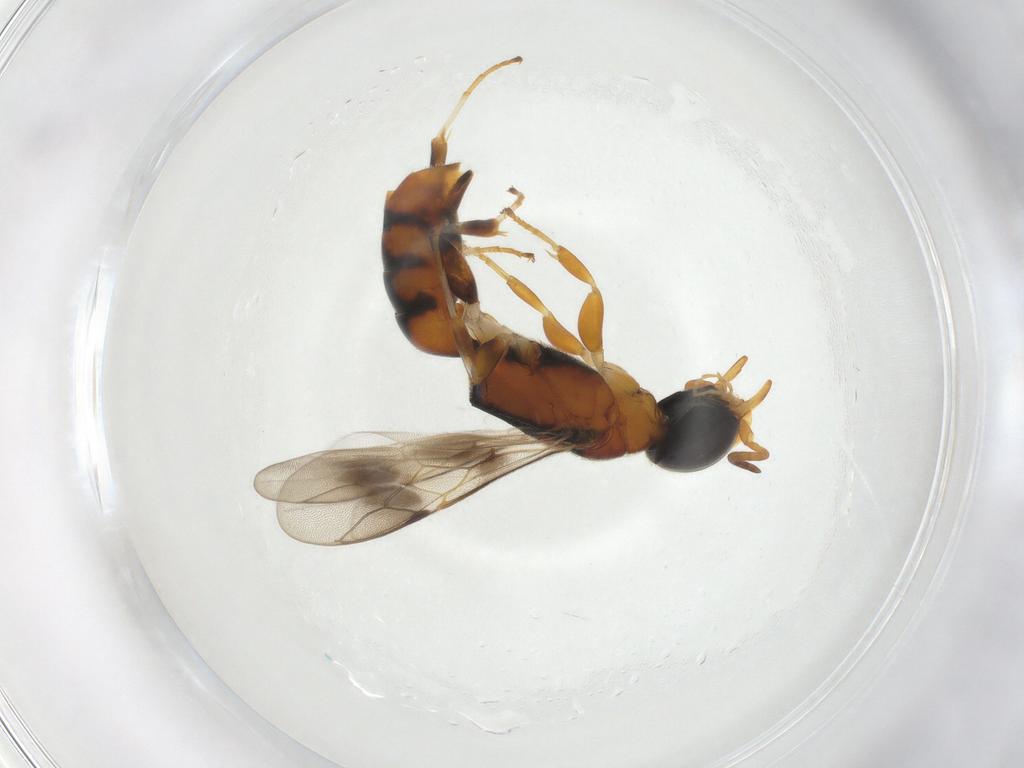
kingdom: Animalia
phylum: Arthropoda
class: Insecta
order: Hymenoptera
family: Crabronidae
